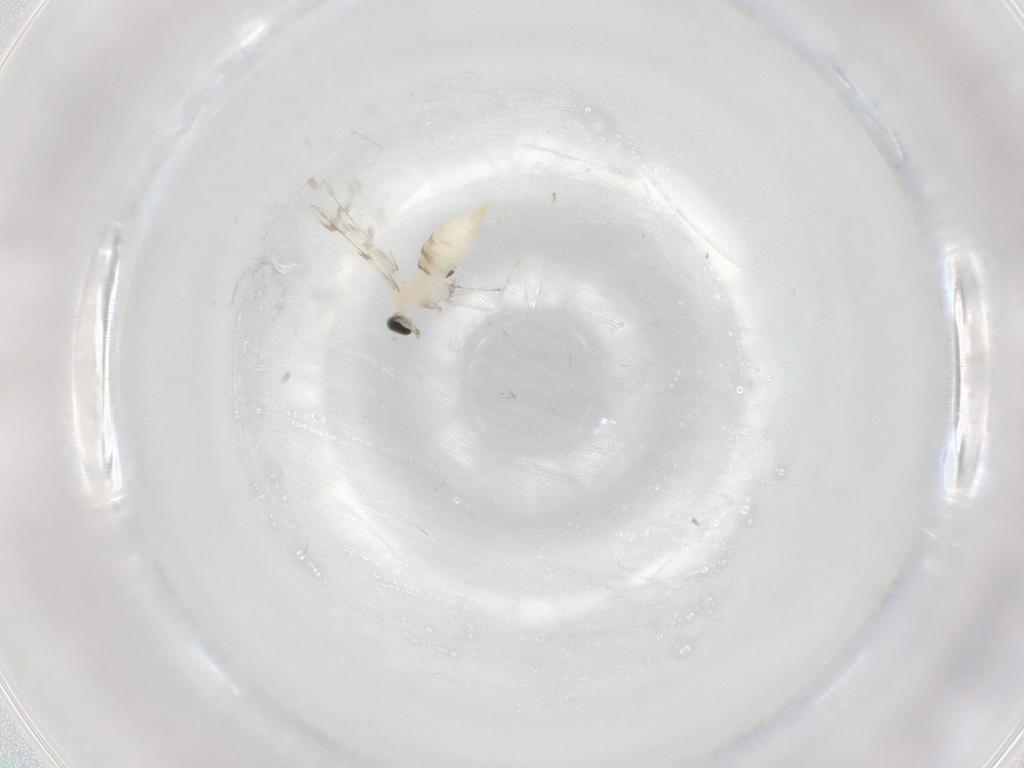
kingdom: Animalia
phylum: Arthropoda
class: Insecta
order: Diptera
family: Cecidomyiidae
